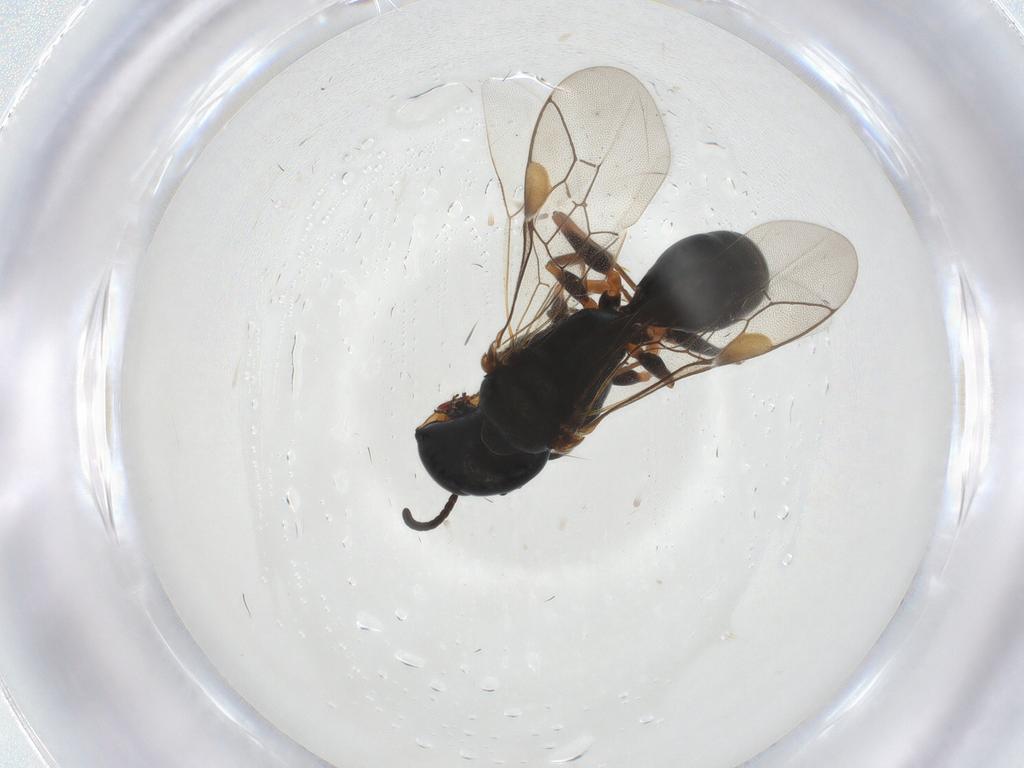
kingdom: Animalia
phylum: Arthropoda
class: Insecta
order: Hymenoptera
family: Pemphredonidae
